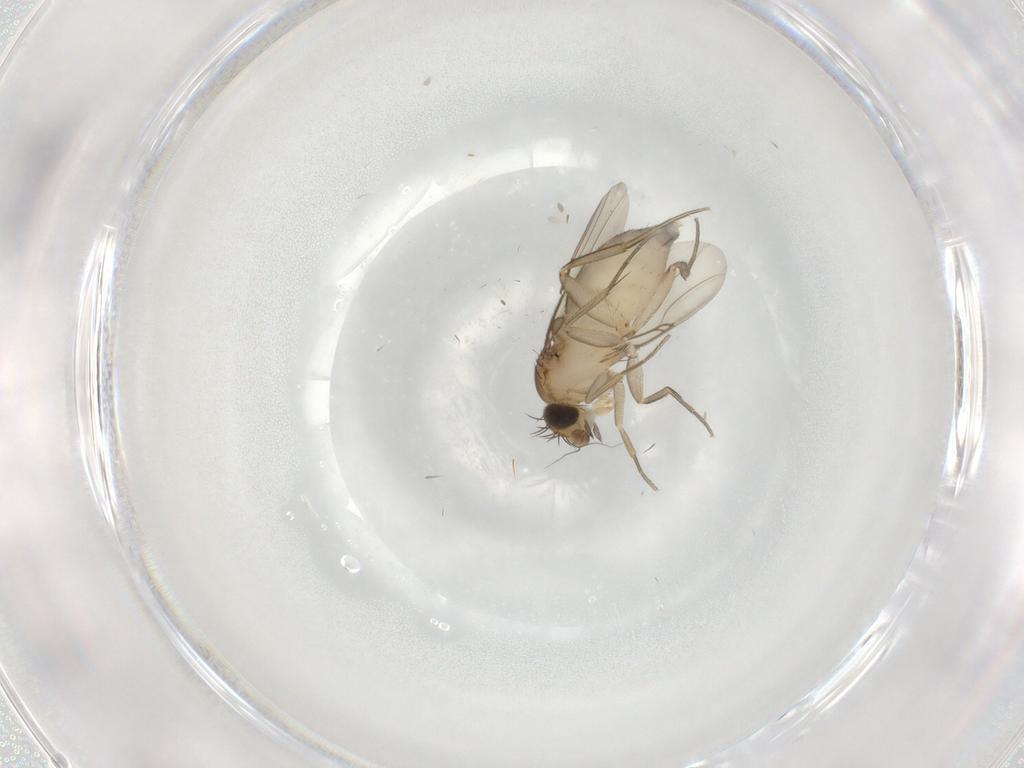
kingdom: Animalia
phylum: Arthropoda
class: Insecta
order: Diptera
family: Phoridae
